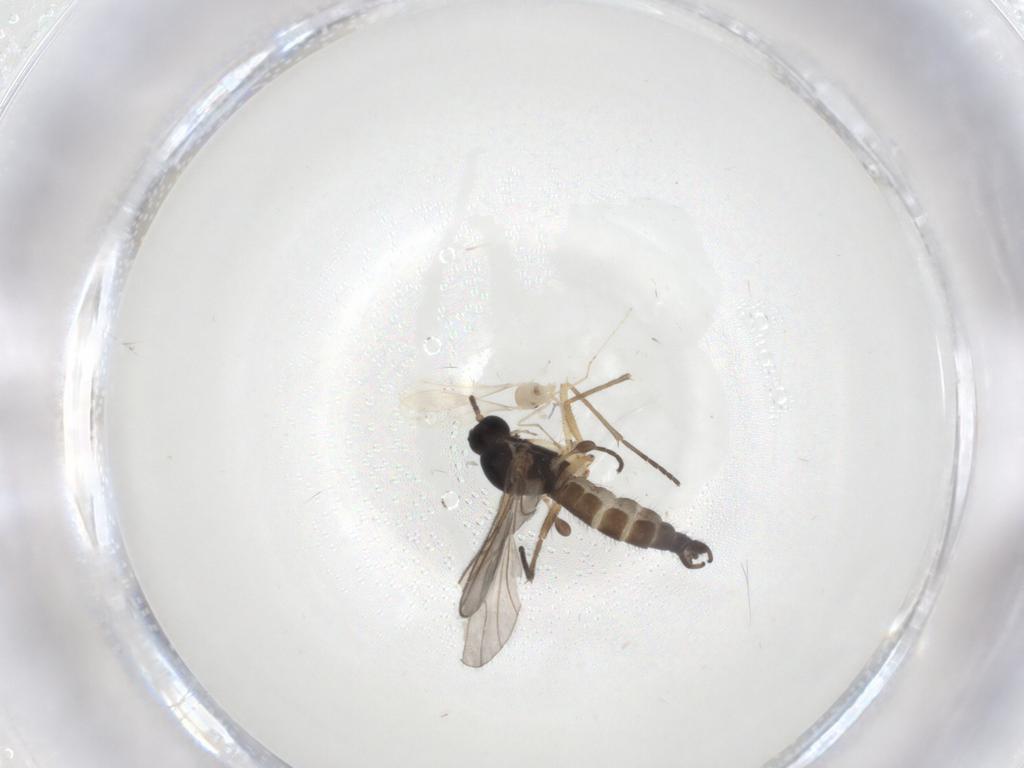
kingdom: Animalia
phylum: Arthropoda
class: Insecta
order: Diptera
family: Sciaridae
